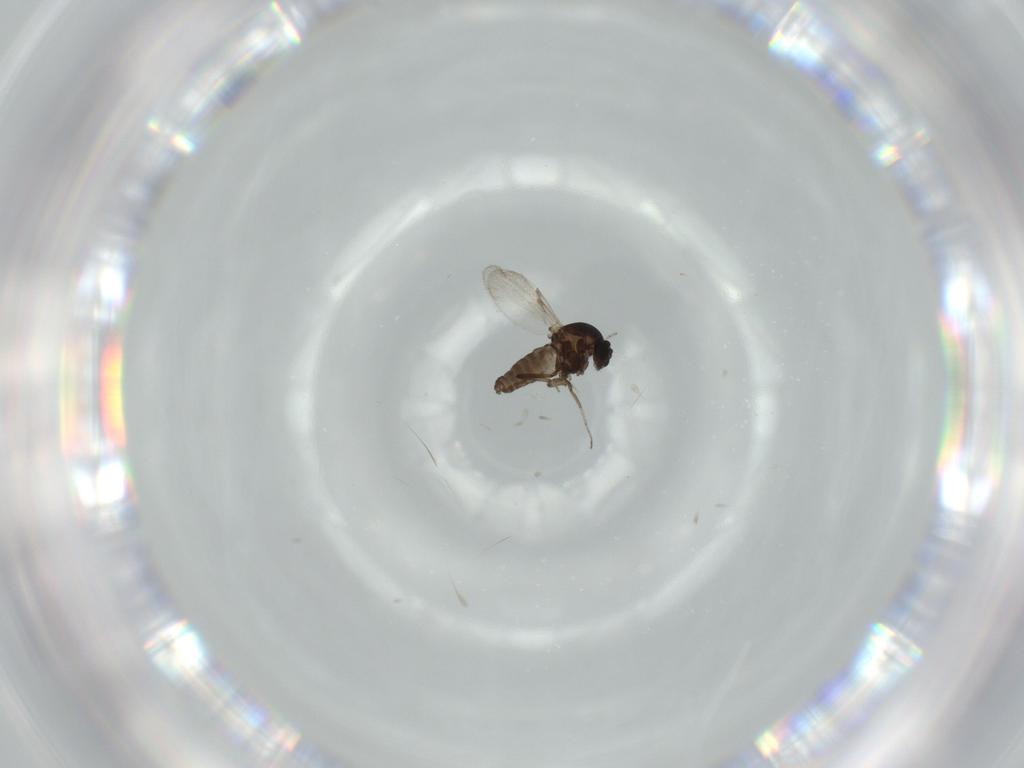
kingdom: Animalia
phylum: Arthropoda
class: Insecta
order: Diptera
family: Ceratopogonidae
